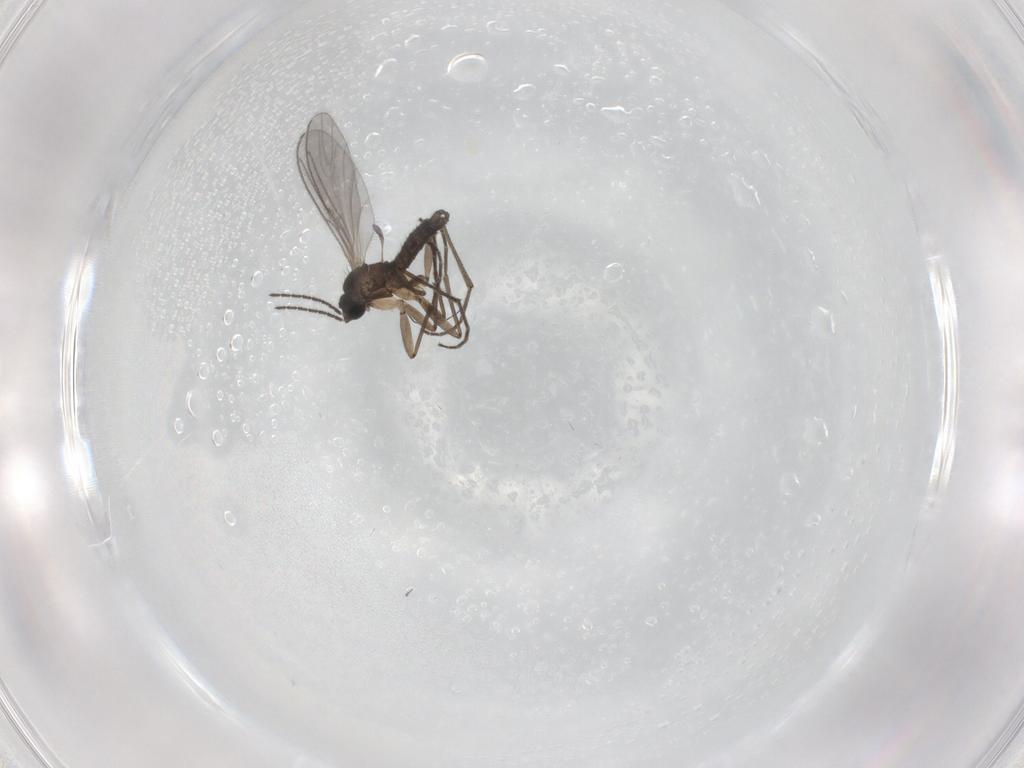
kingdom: Animalia
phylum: Arthropoda
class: Insecta
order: Diptera
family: Sciaridae
